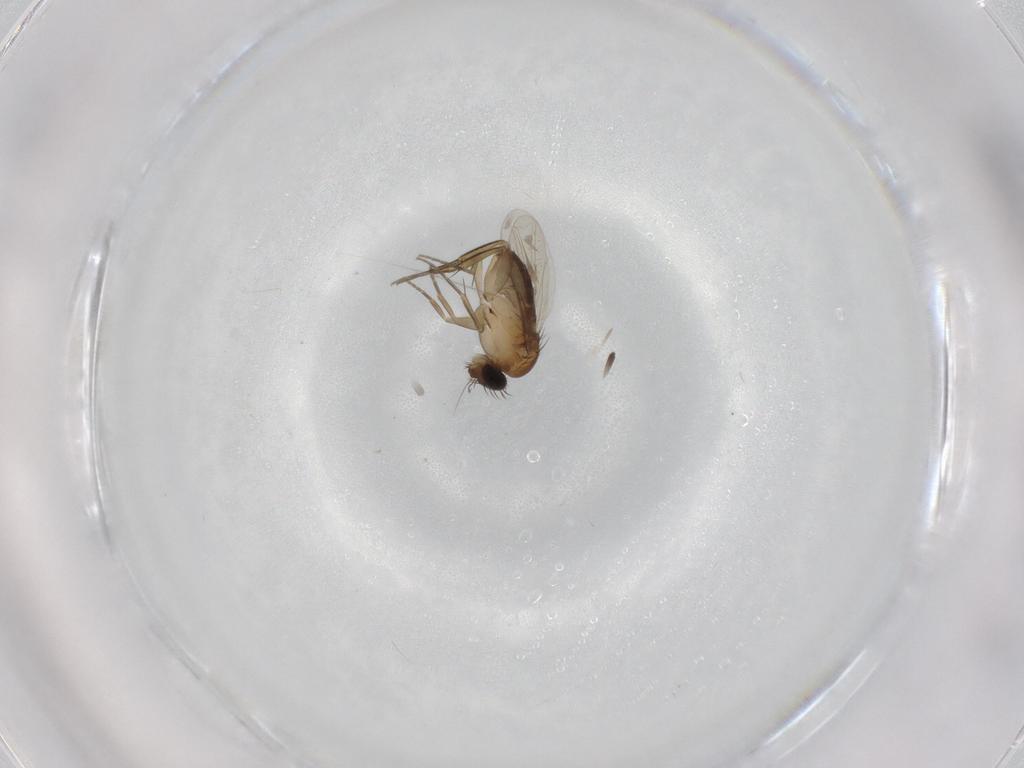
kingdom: Animalia
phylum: Arthropoda
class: Insecta
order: Diptera
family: Phoridae
